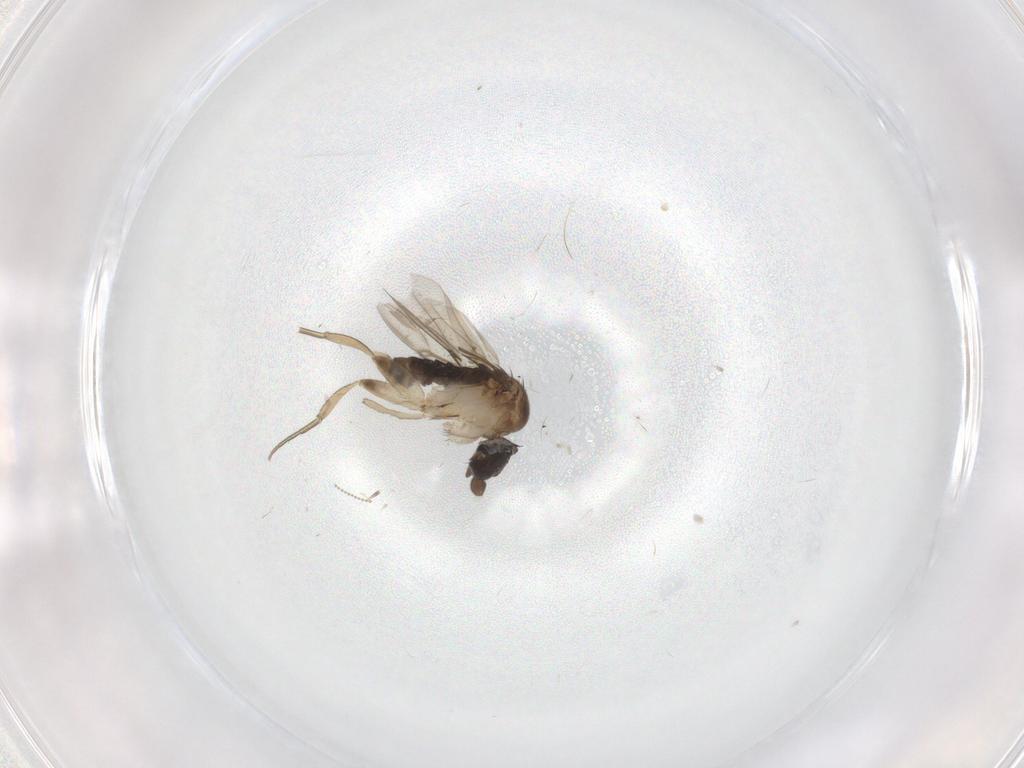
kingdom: Animalia
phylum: Arthropoda
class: Insecta
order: Diptera
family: Phoridae
